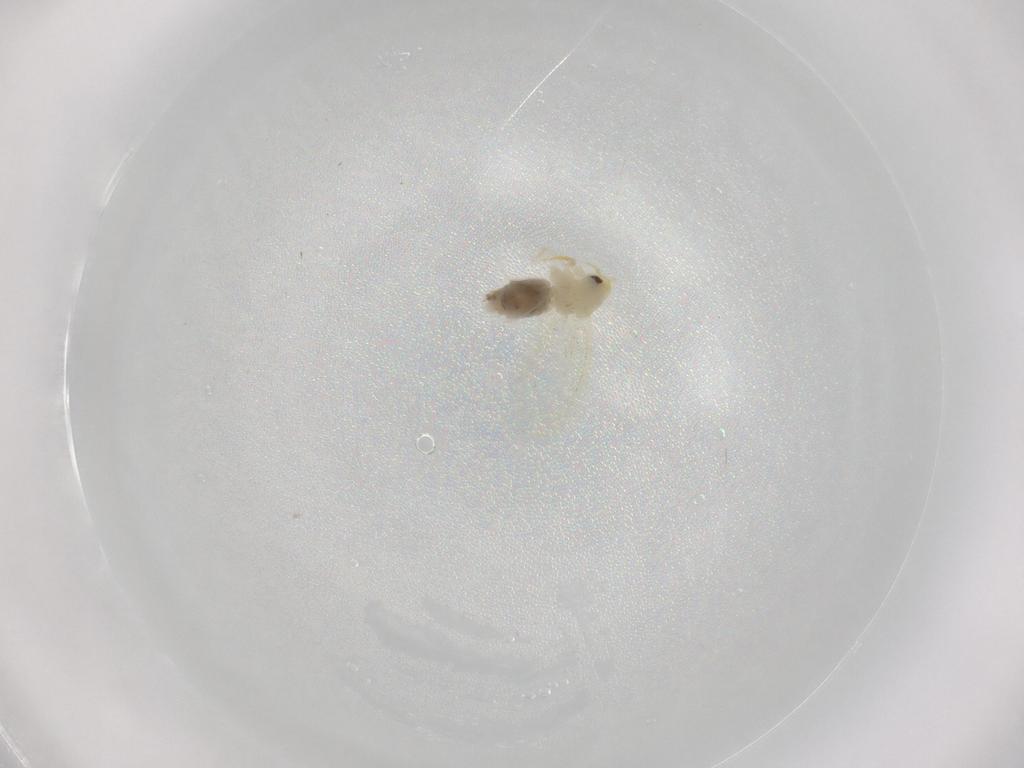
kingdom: Animalia
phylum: Arthropoda
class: Insecta
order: Hemiptera
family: Aleyrodidae
